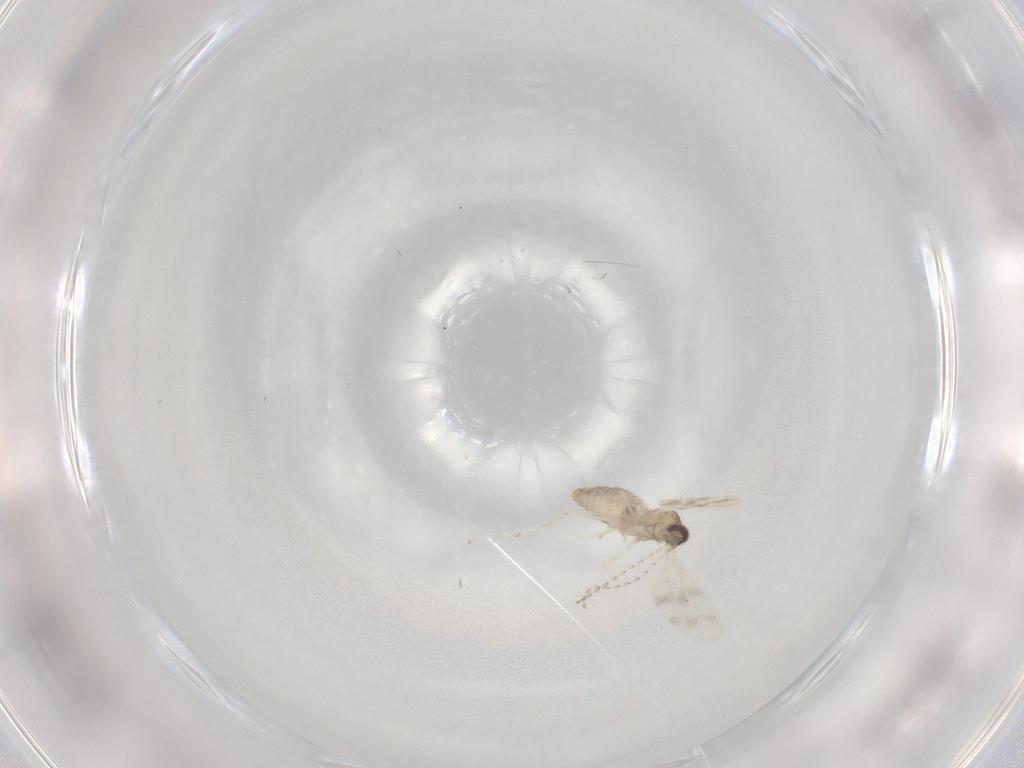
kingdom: Animalia
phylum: Arthropoda
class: Insecta
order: Diptera
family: Cecidomyiidae
